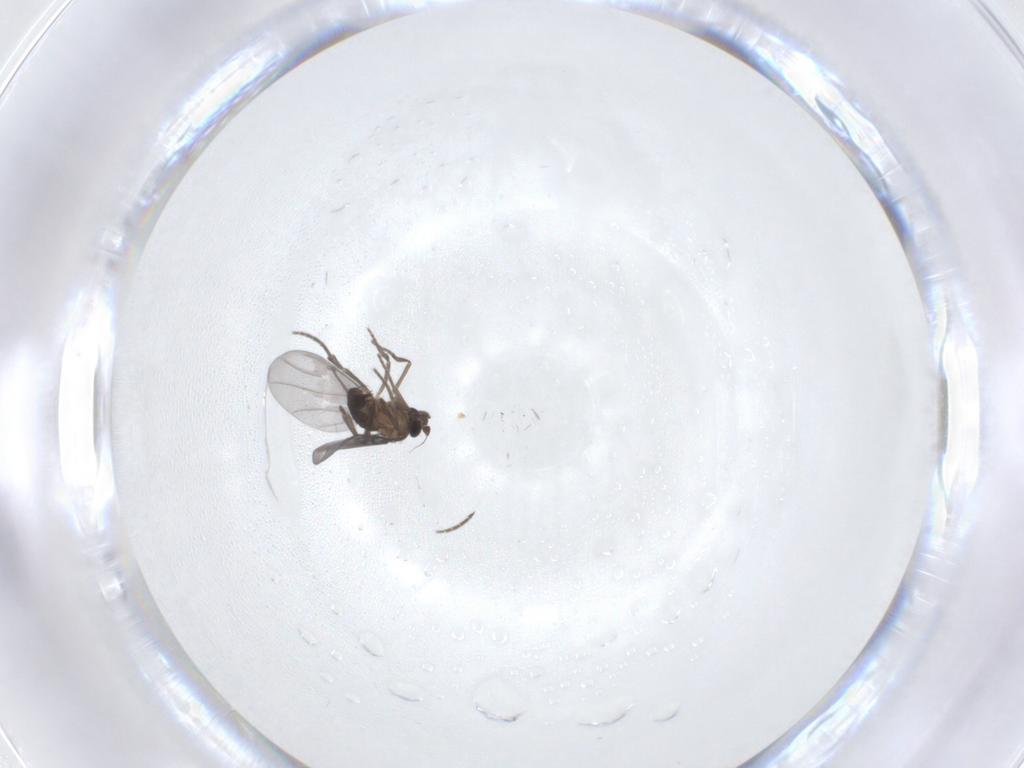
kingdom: Animalia
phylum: Arthropoda
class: Insecta
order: Diptera
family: Phoridae
